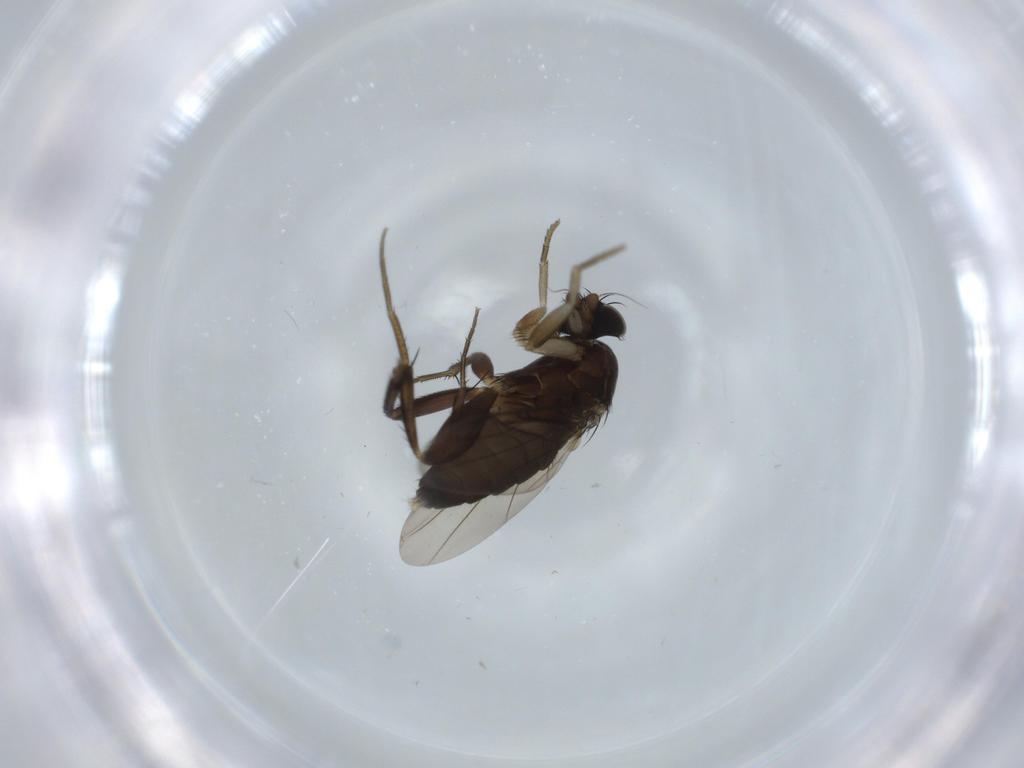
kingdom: Animalia
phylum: Arthropoda
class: Insecta
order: Diptera
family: Phoridae
